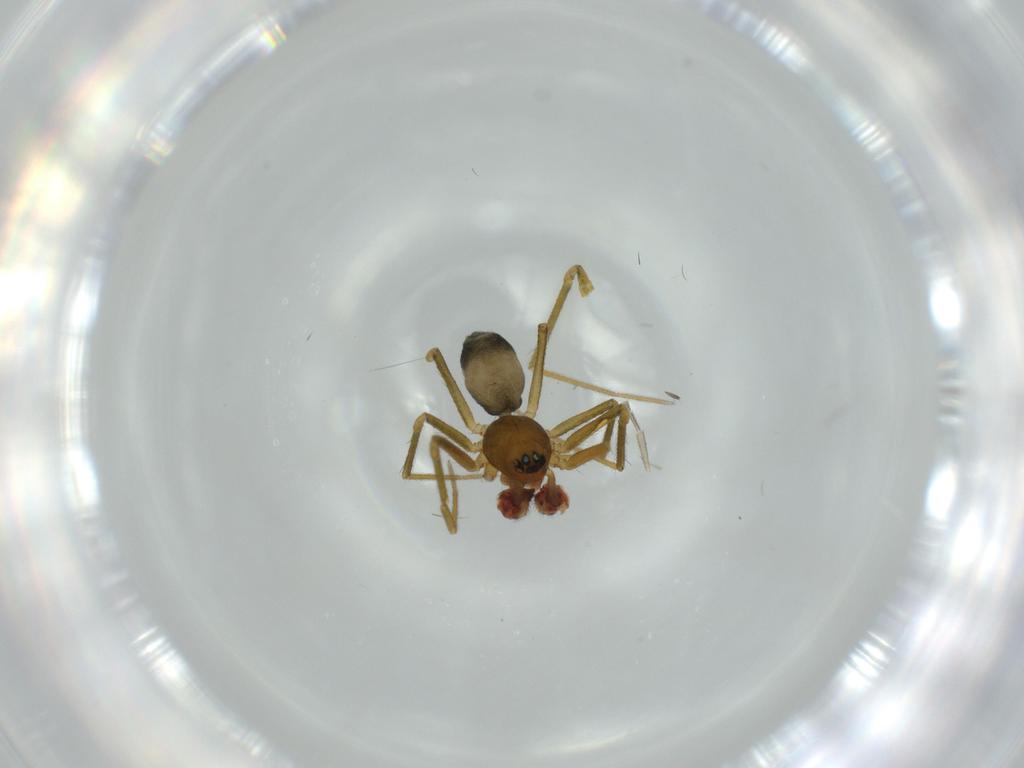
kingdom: Animalia
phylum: Arthropoda
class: Arachnida
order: Araneae
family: Linyphiidae
